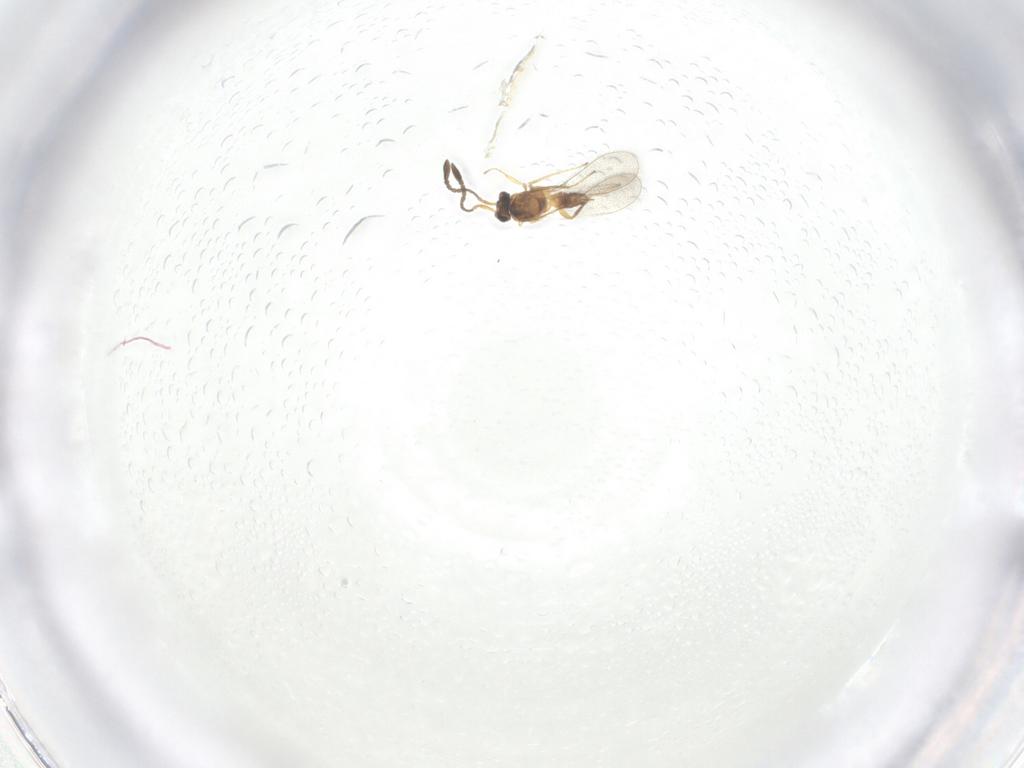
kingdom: Animalia
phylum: Arthropoda
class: Insecta
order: Hymenoptera
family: Mymaridae
